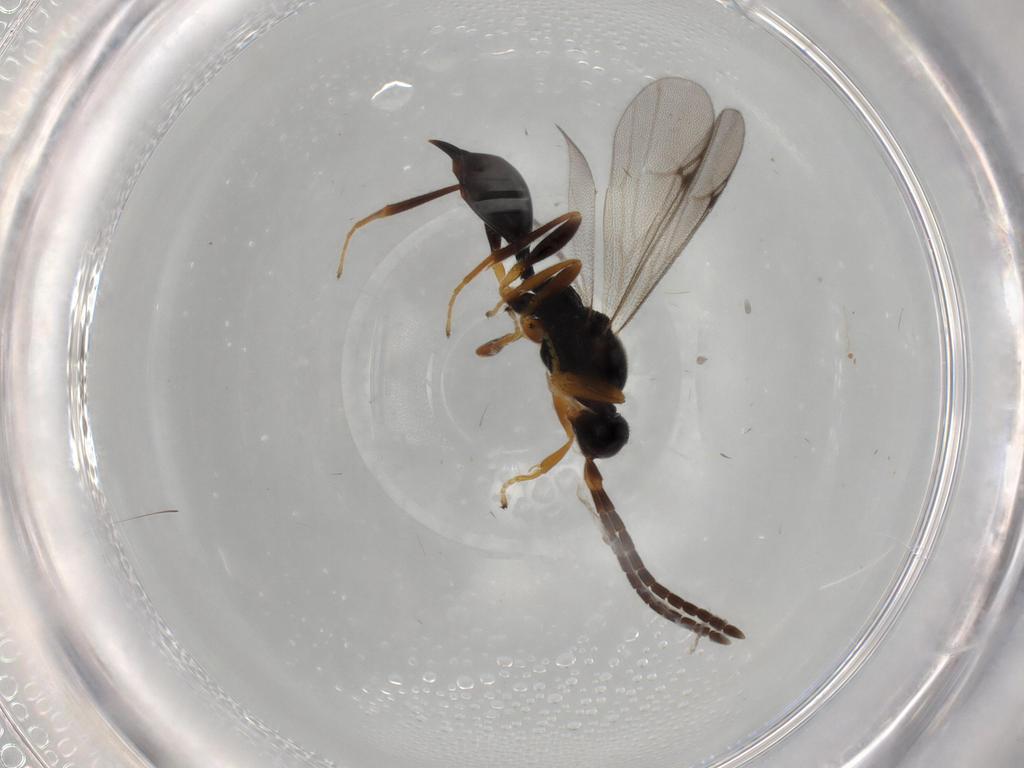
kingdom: Animalia
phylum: Arthropoda
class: Insecta
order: Hymenoptera
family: Proctotrupidae
